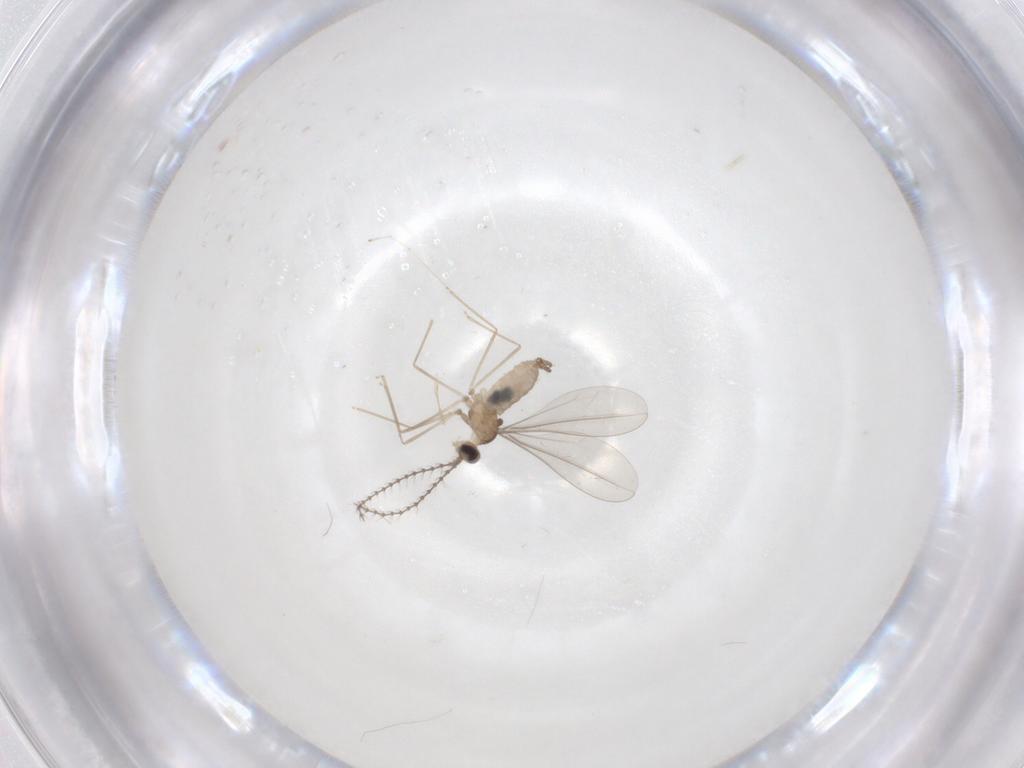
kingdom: Animalia
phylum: Arthropoda
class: Insecta
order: Diptera
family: Cecidomyiidae
